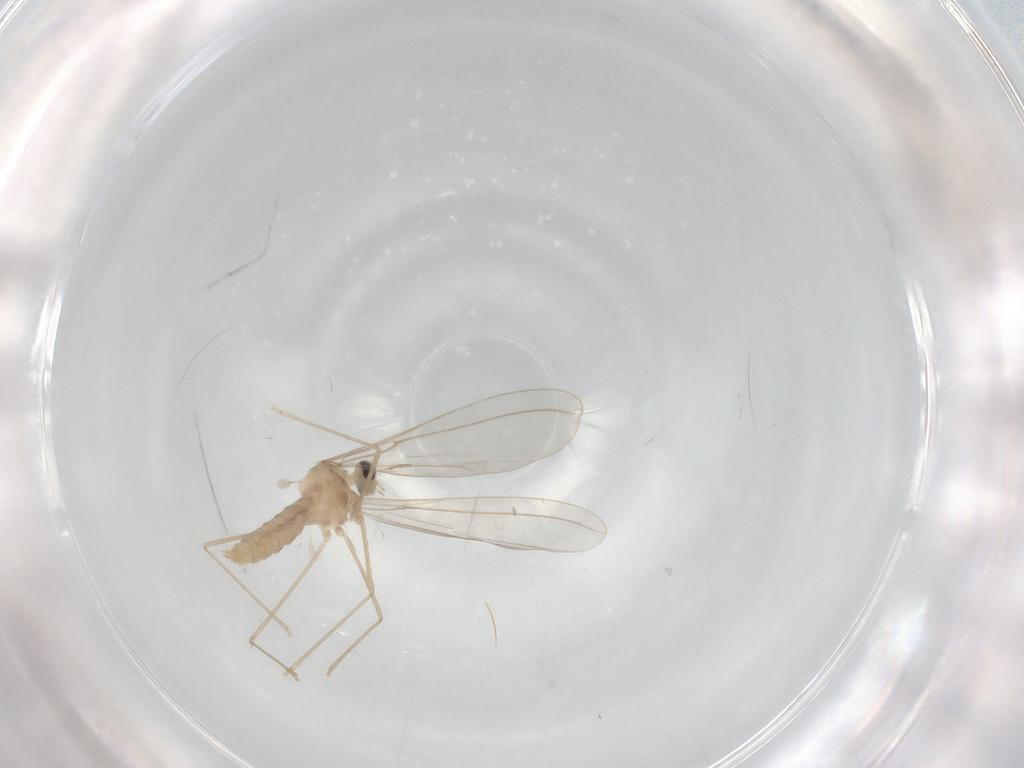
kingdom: Animalia
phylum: Arthropoda
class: Insecta
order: Diptera
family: Cecidomyiidae
